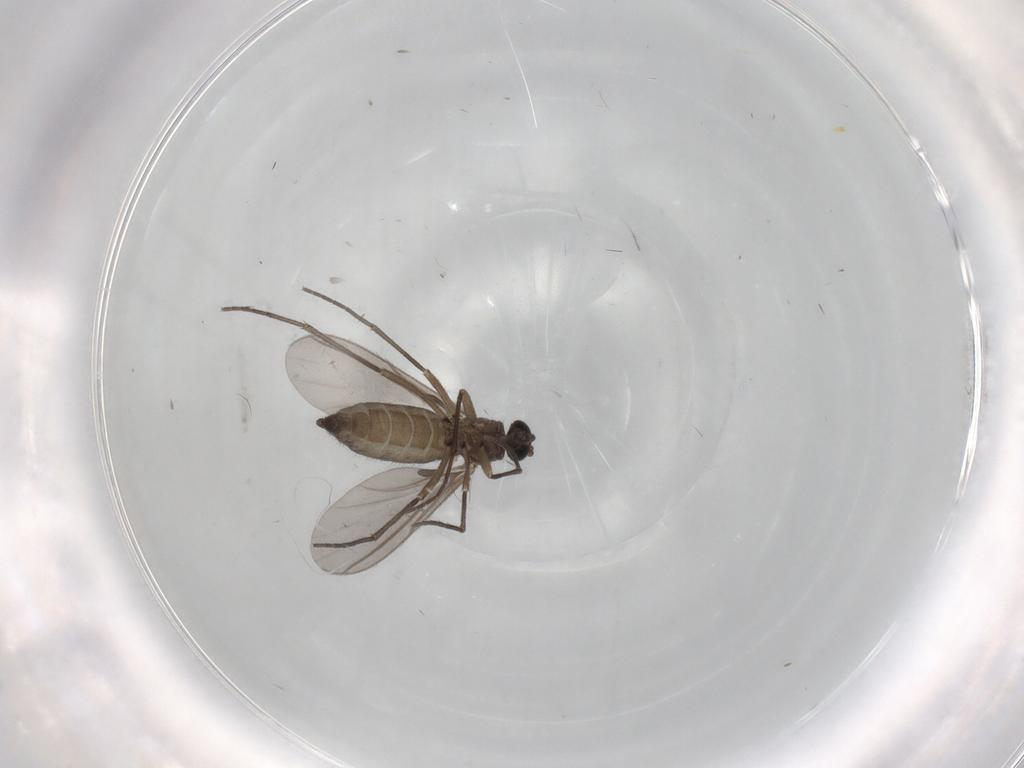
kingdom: Animalia
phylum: Arthropoda
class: Insecta
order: Diptera
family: Sciaridae
